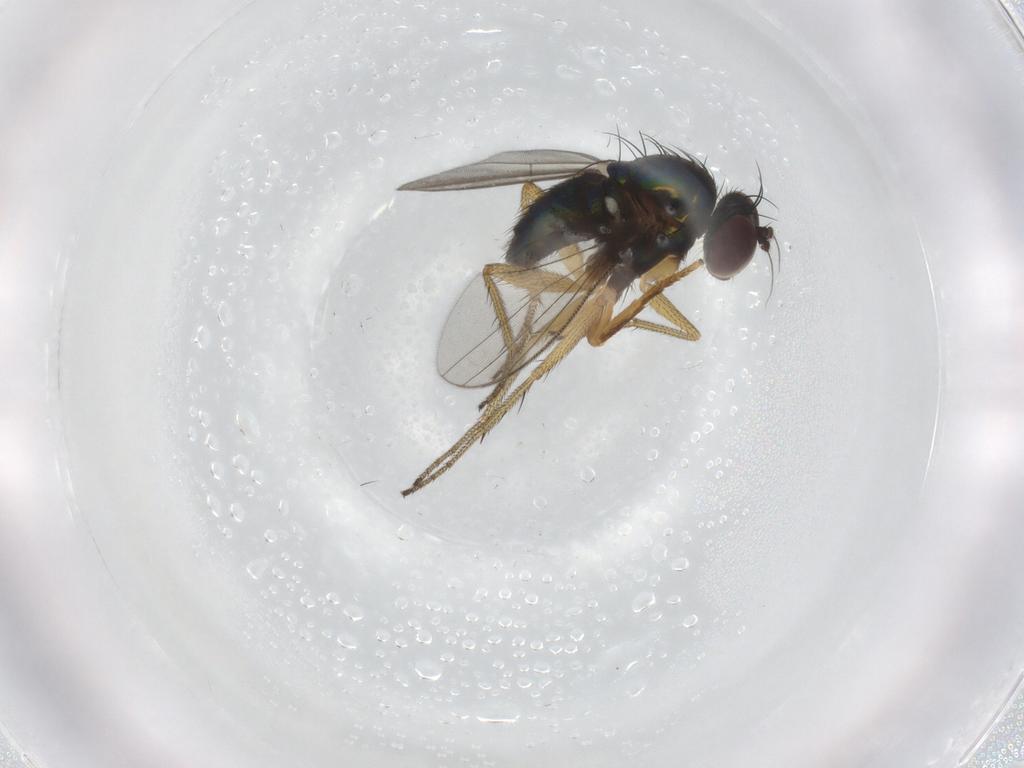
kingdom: Animalia
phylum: Arthropoda
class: Insecta
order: Diptera
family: Chironomidae
